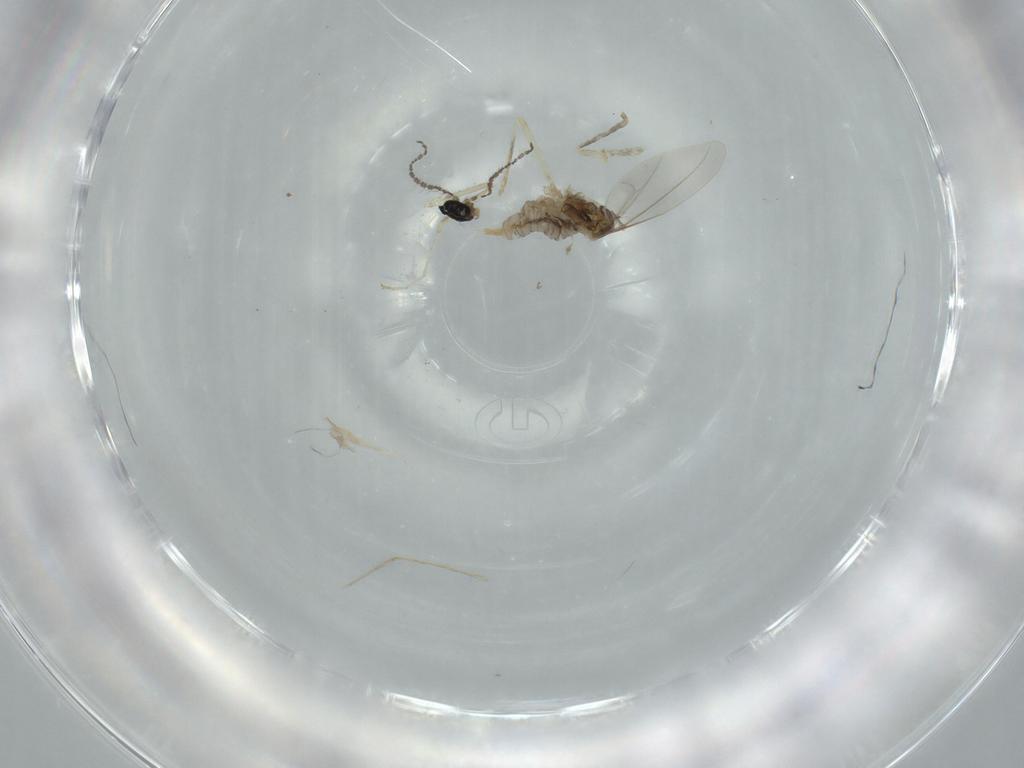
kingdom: Animalia
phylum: Arthropoda
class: Insecta
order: Diptera
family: Cecidomyiidae
